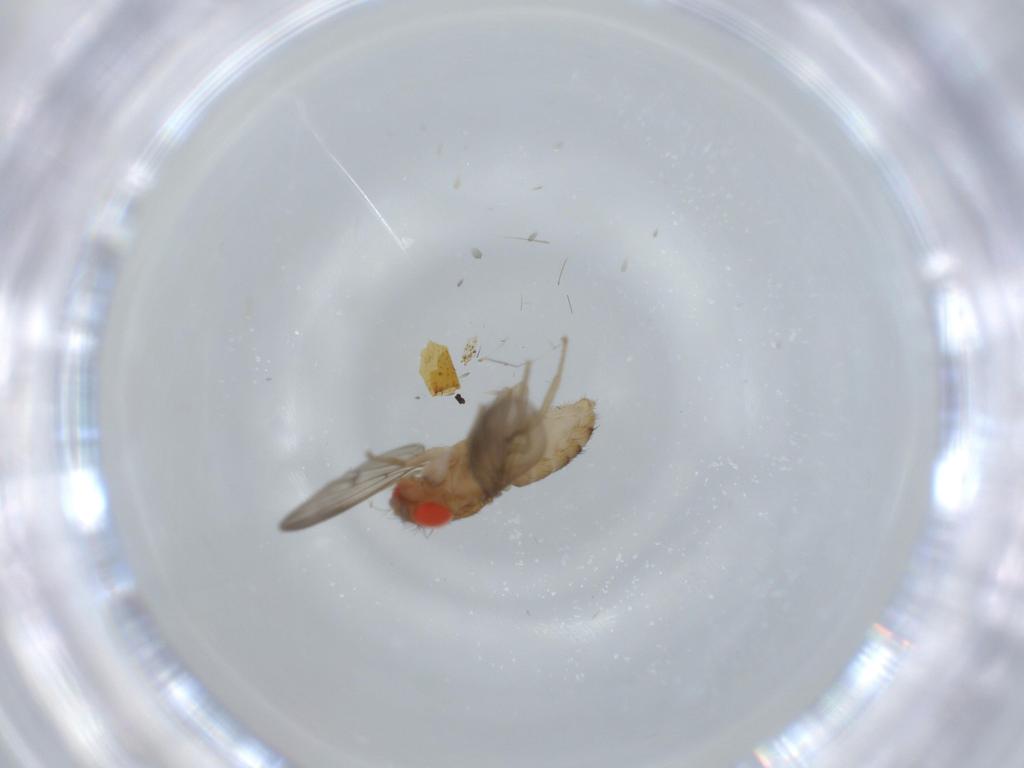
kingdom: Animalia
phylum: Arthropoda
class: Insecta
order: Diptera
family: Drosophilidae
